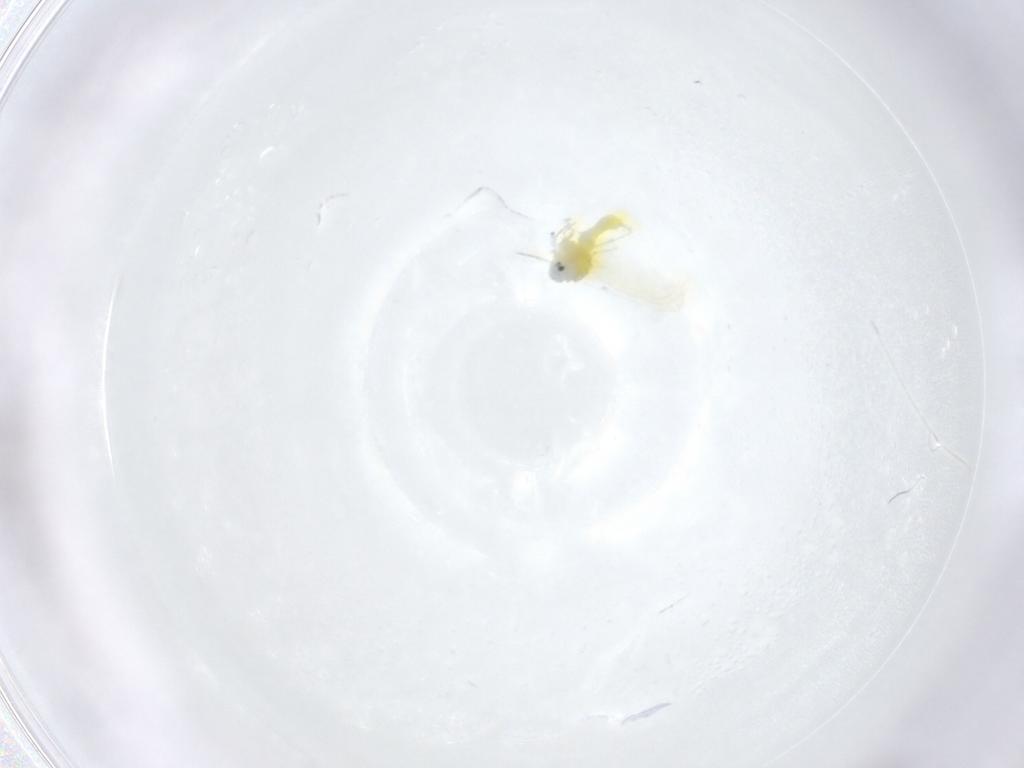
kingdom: Animalia
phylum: Arthropoda
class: Insecta
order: Hemiptera
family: Aleyrodidae
